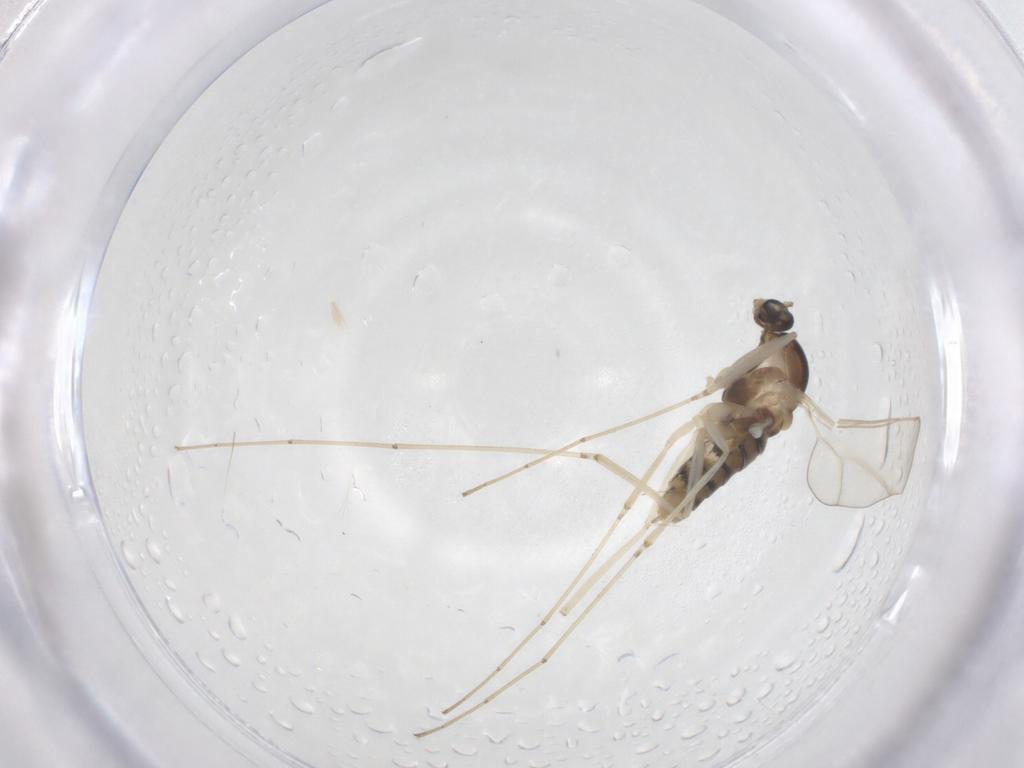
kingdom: Animalia
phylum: Arthropoda
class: Insecta
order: Diptera
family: Cecidomyiidae
